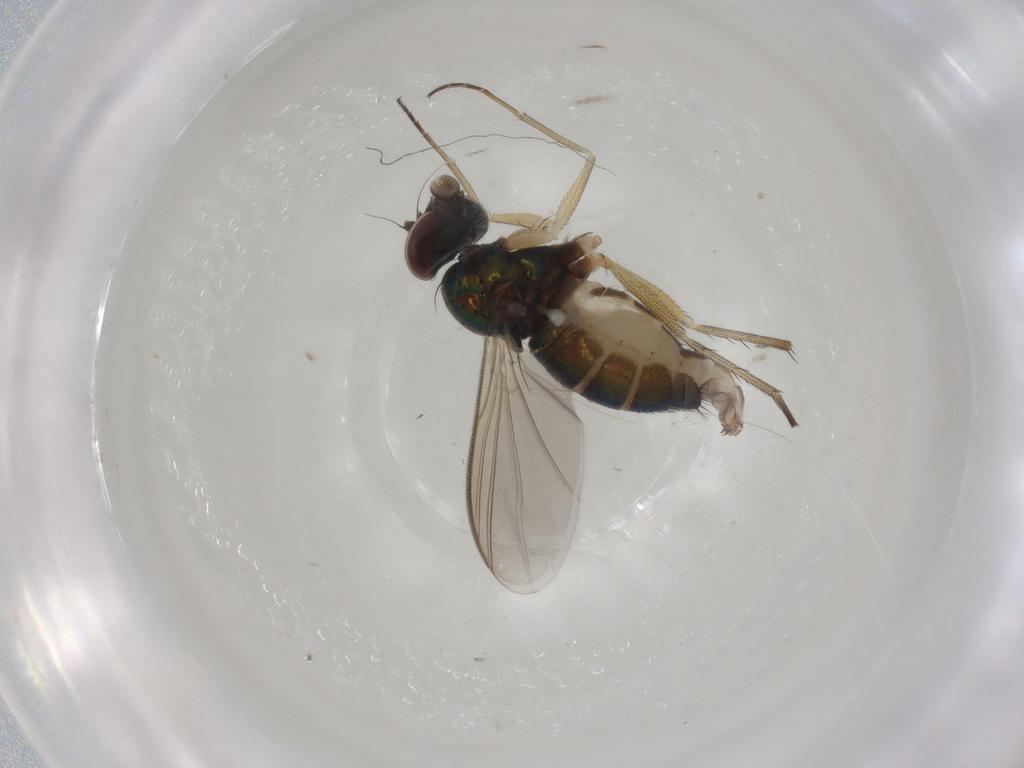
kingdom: Animalia
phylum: Arthropoda
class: Insecta
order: Diptera
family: Dolichopodidae
